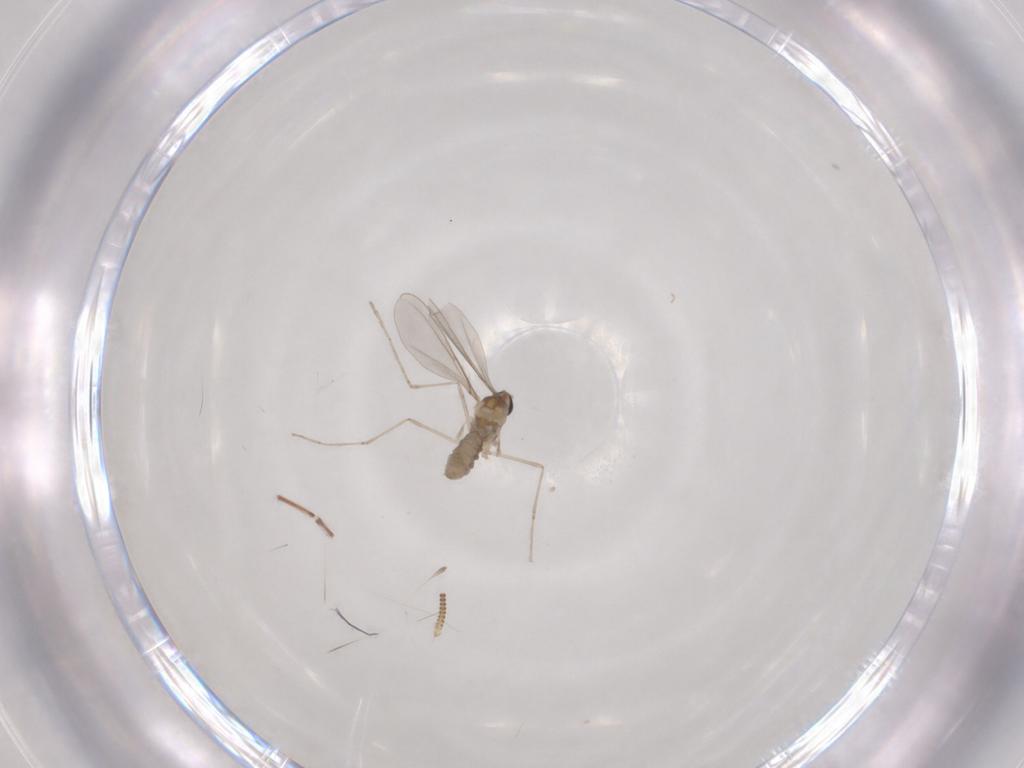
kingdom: Animalia
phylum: Arthropoda
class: Insecta
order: Diptera
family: Cecidomyiidae
